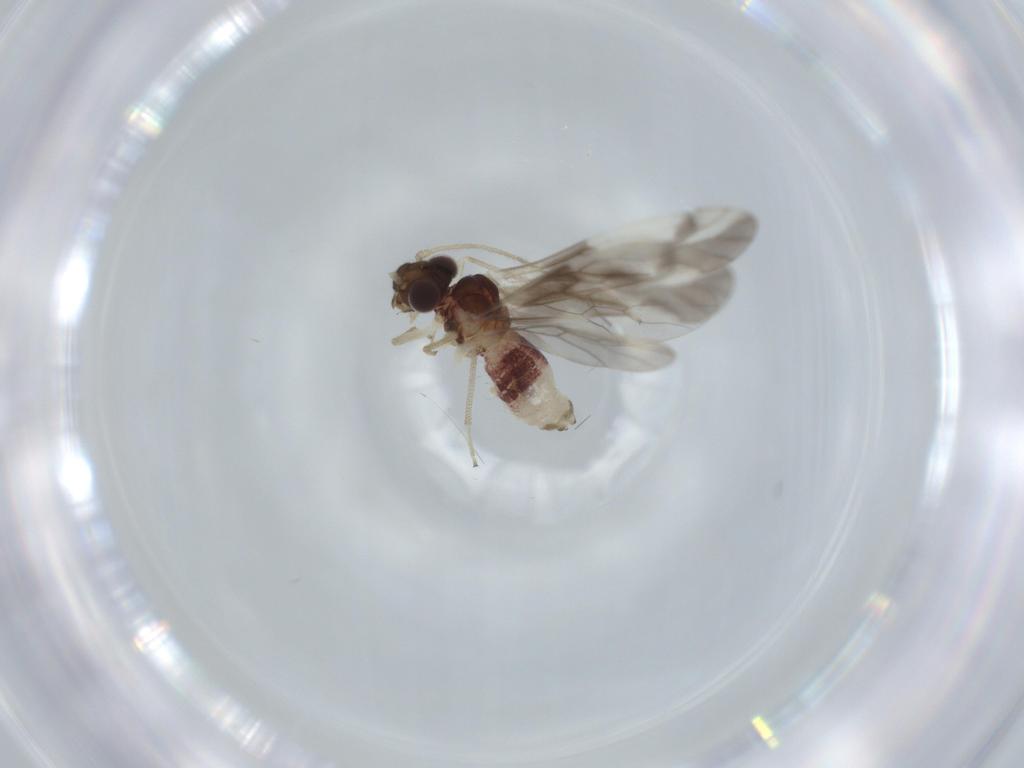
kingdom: Animalia
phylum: Arthropoda
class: Insecta
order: Psocodea
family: Caeciliusidae
